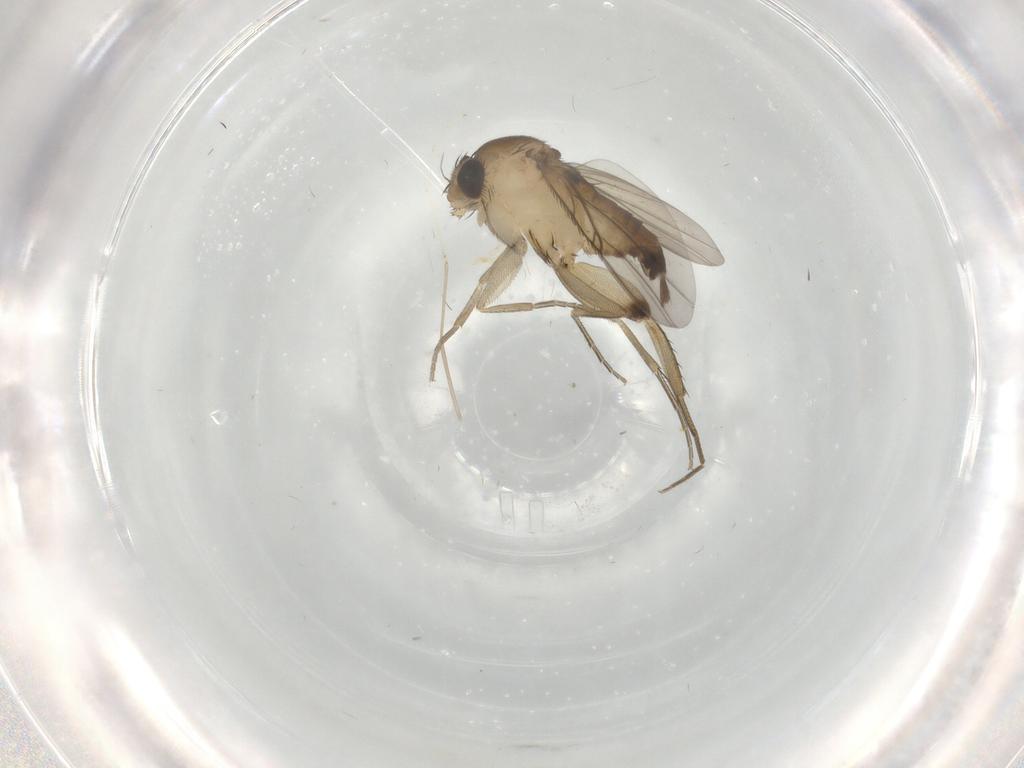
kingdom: Animalia
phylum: Arthropoda
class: Insecta
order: Diptera
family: Phoridae
